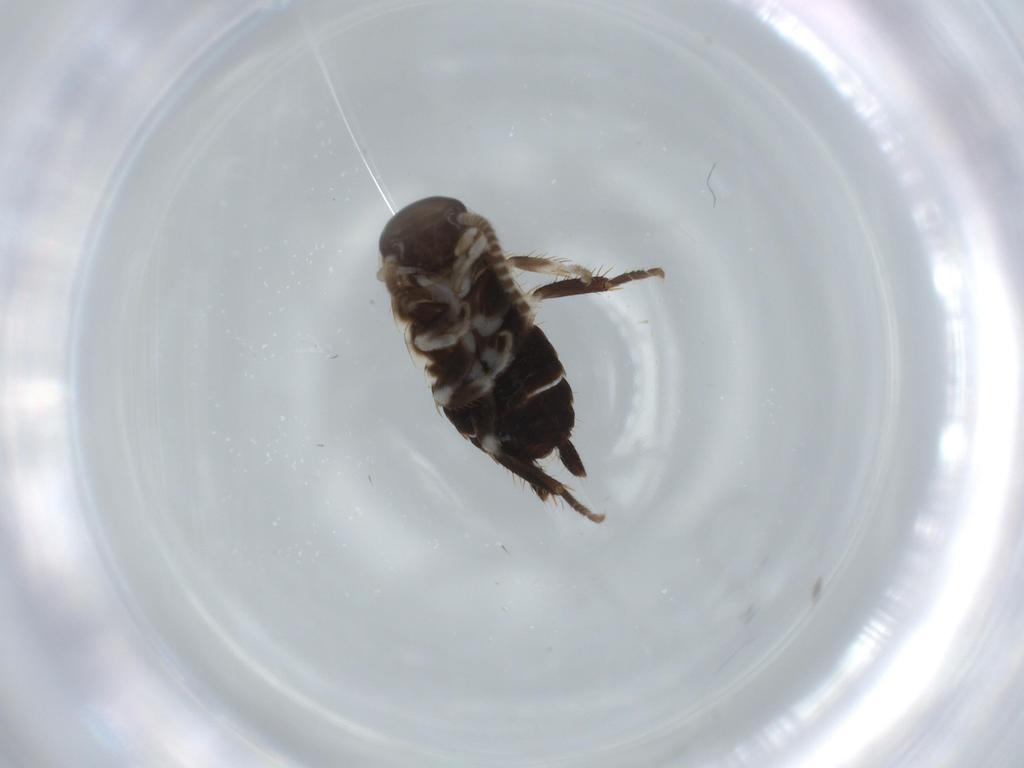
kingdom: Animalia
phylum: Arthropoda
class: Insecta
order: Blattodea
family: Ectobiidae
